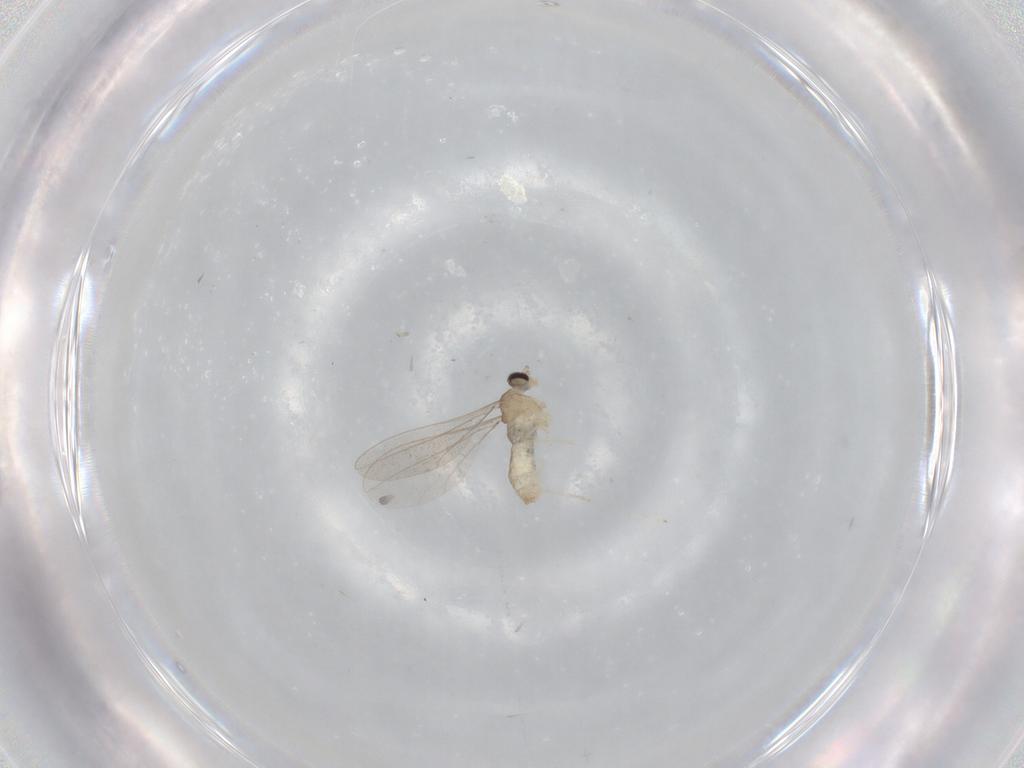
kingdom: Animalia
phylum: Arthropoda
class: Insecta
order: Diptera
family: Cecidomyiidae
